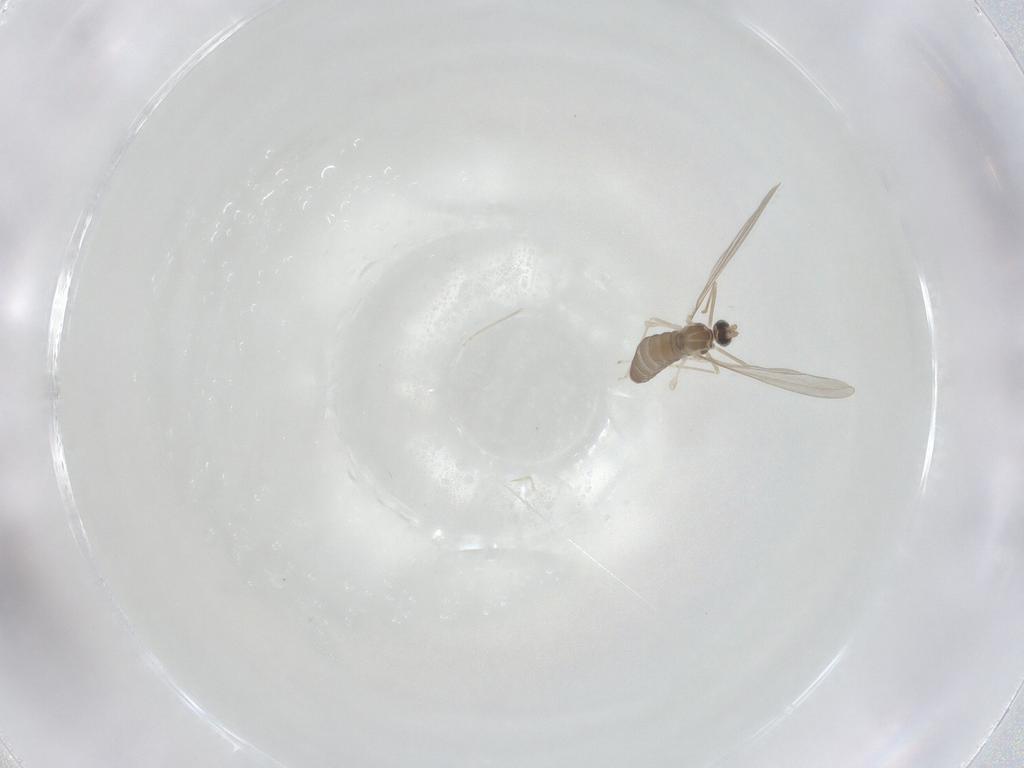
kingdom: Animalia
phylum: Arthropoda
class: Insecta
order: Diptera
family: Cecidomyiidae
